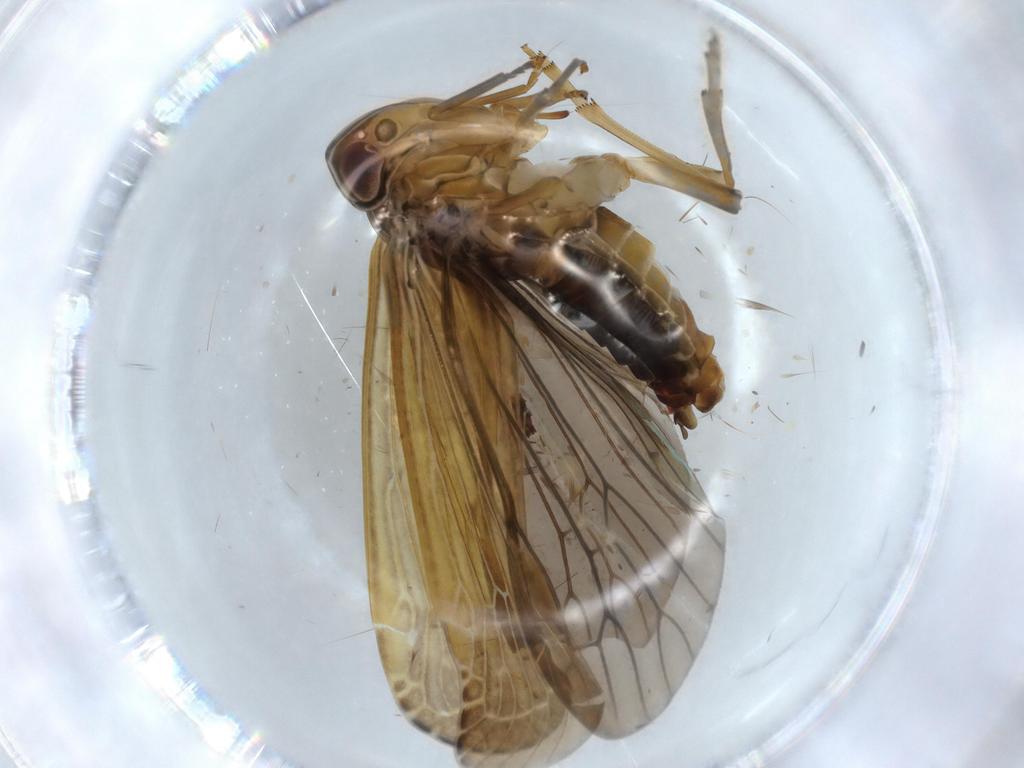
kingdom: Animalia
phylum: Arthropoda
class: Insecta
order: Hemiptera
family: Achilidae
